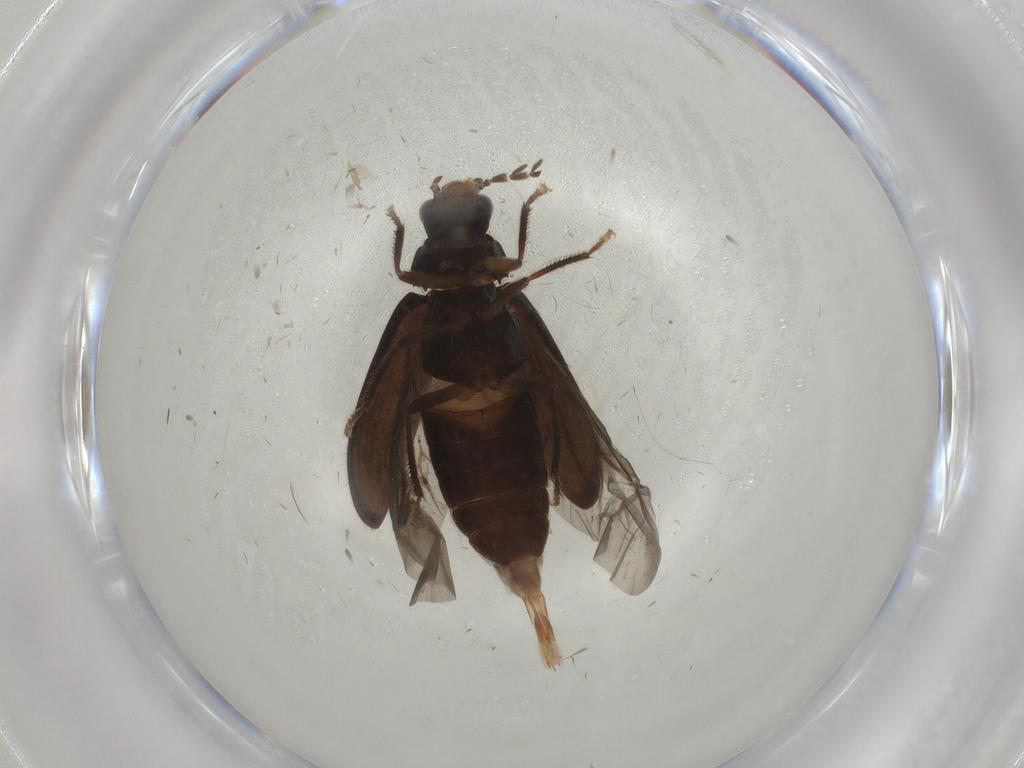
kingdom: Animalia
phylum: Arthropoda
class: Insecta
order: Coleoptera
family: Ptilodactylidae
